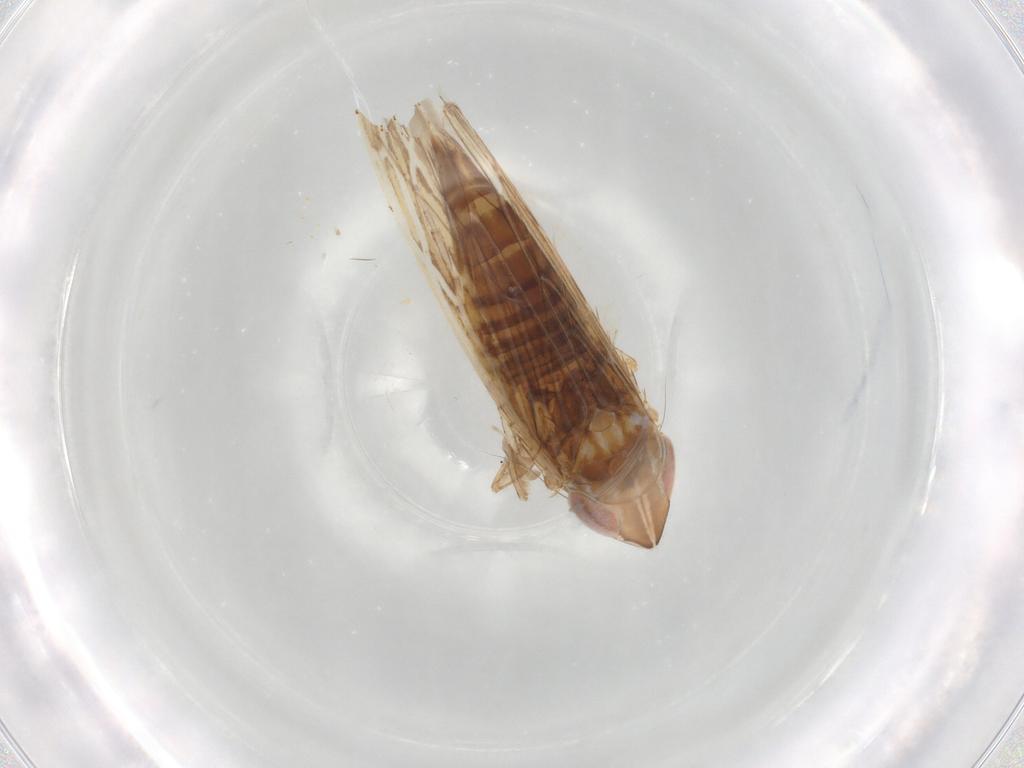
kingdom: Animalia
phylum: Arthropoda
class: Insecta
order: Hemiptera
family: Cicadellidae
